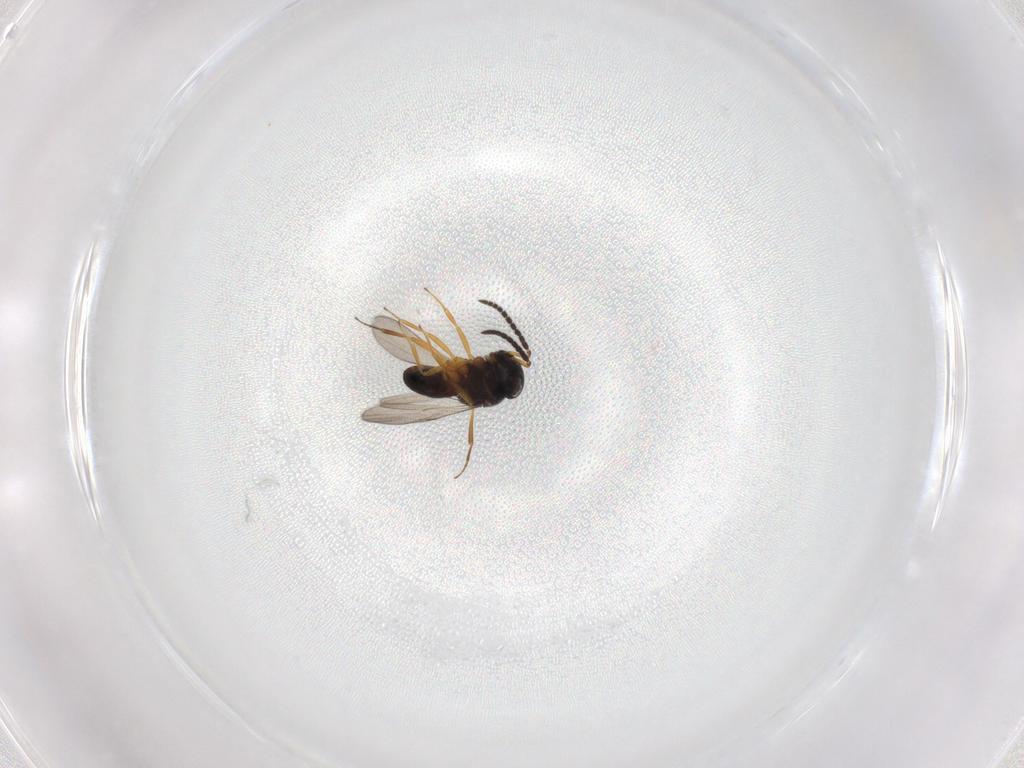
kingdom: Animalia
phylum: Arthropoda
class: Insecta
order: Hymenoptera
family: Scelionidae
